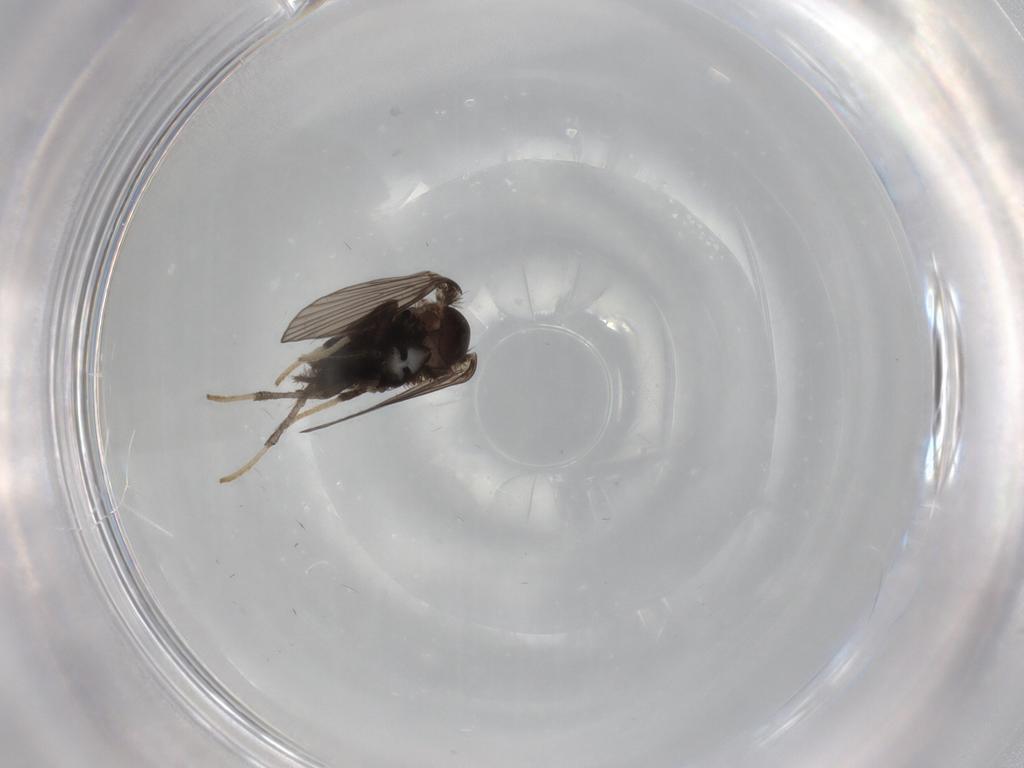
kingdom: Animalia
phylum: Arthropoda
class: Insecta
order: Diptera
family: Psychodidae
